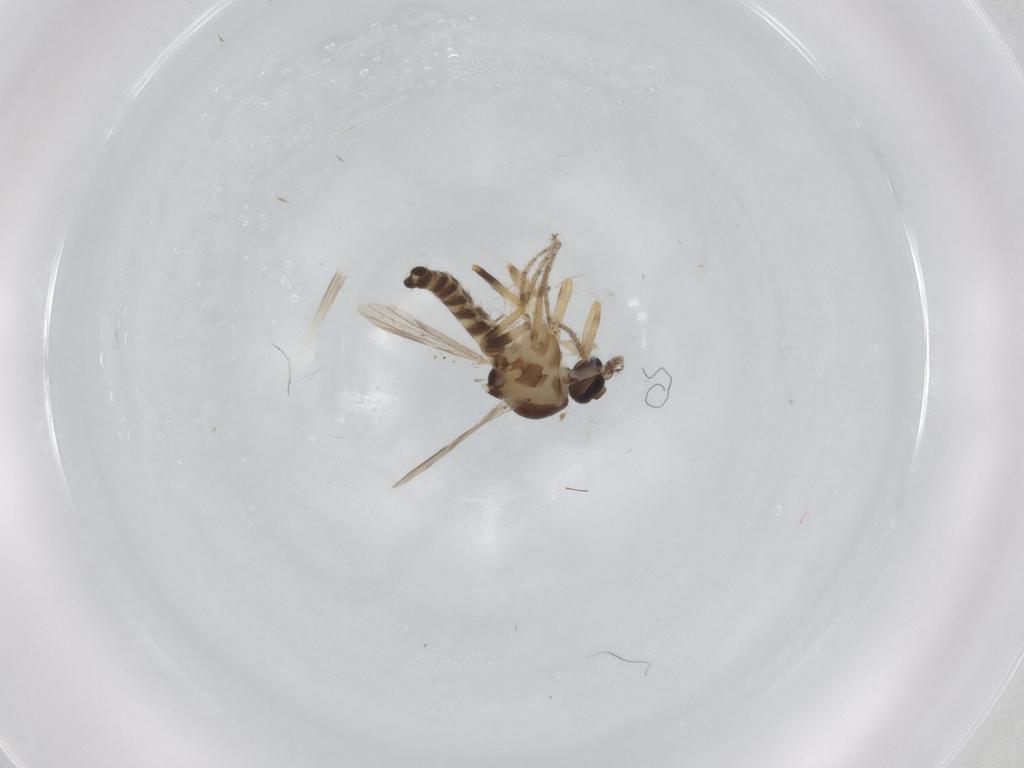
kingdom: Animalia
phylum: Arthropoda
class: Insecta
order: Diptera
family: Ceratopogonidae
